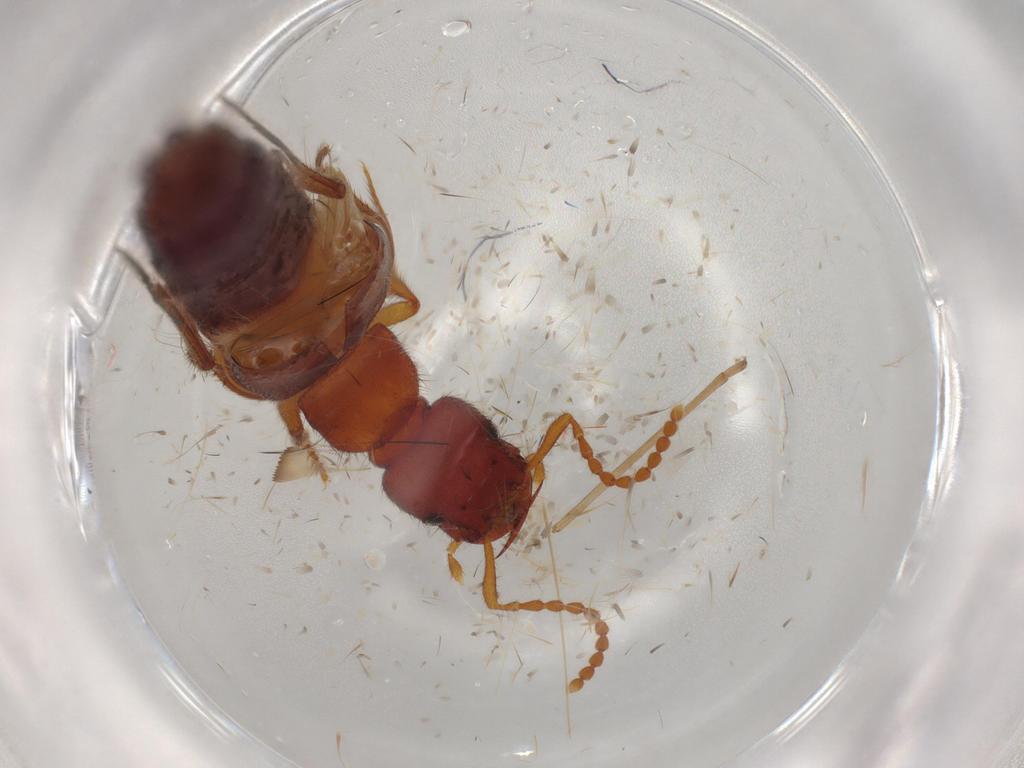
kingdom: Animalia
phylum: Arthropoda
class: Insecta
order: Coleoptera
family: Staphylinidae
